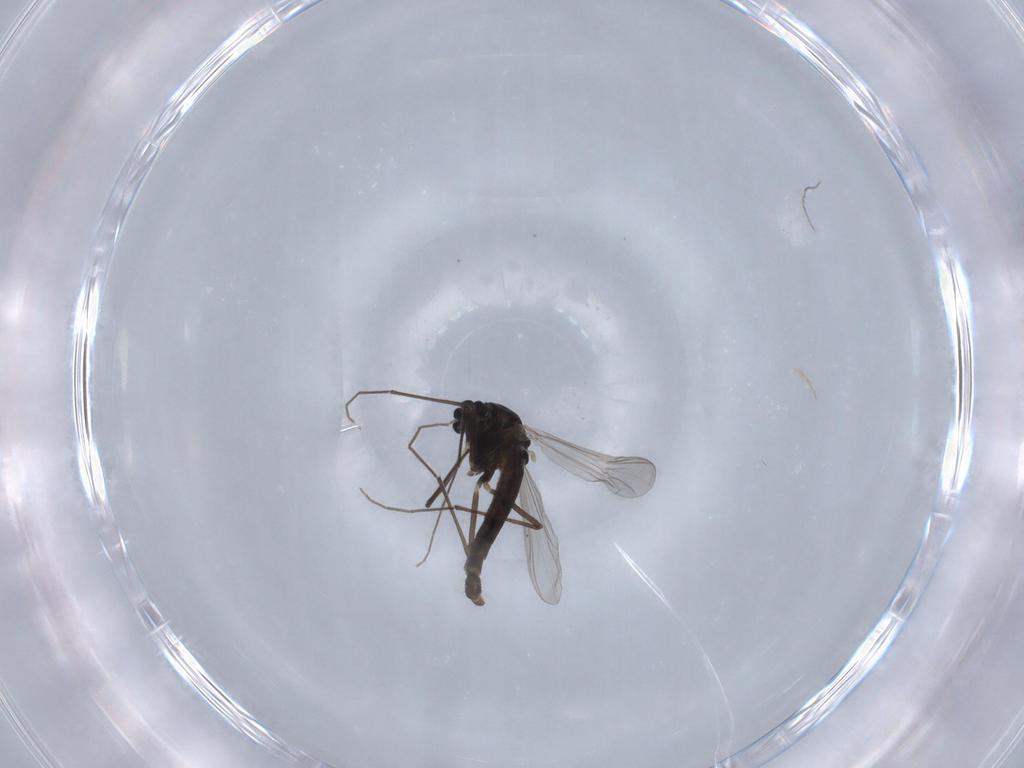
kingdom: Animalia
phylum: Arthropoda
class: Insecta
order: Diptera
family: Chironomidae
